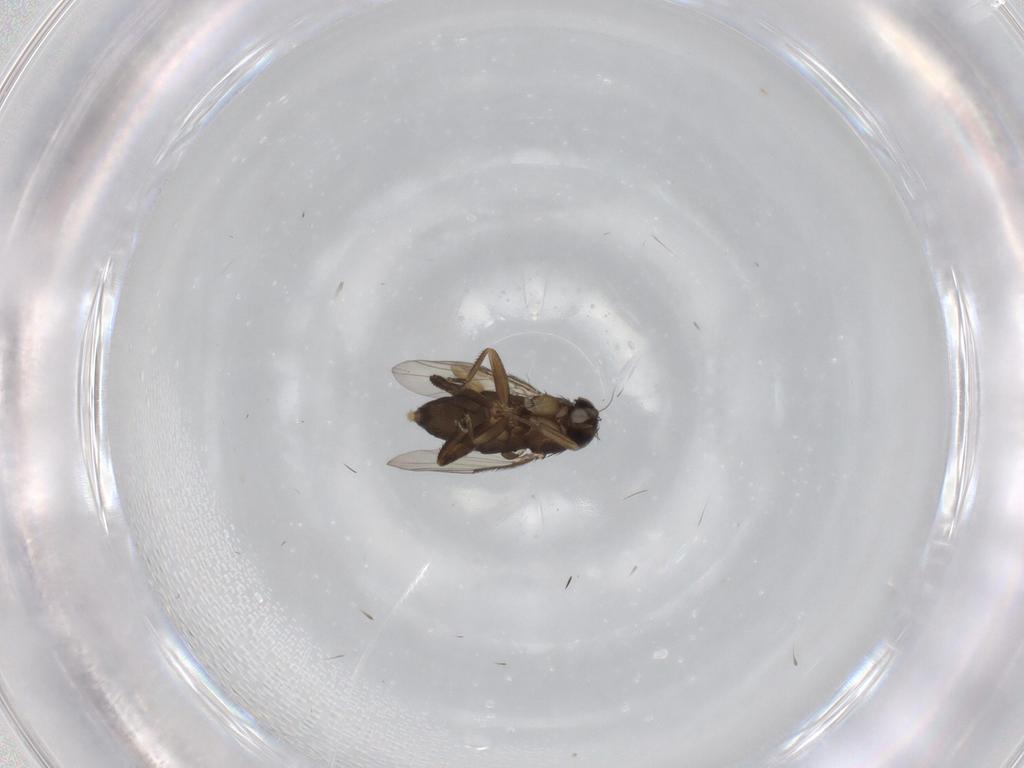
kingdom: Animalia
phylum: Arthropoda
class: Insecta
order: Diptera
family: Phoridae
